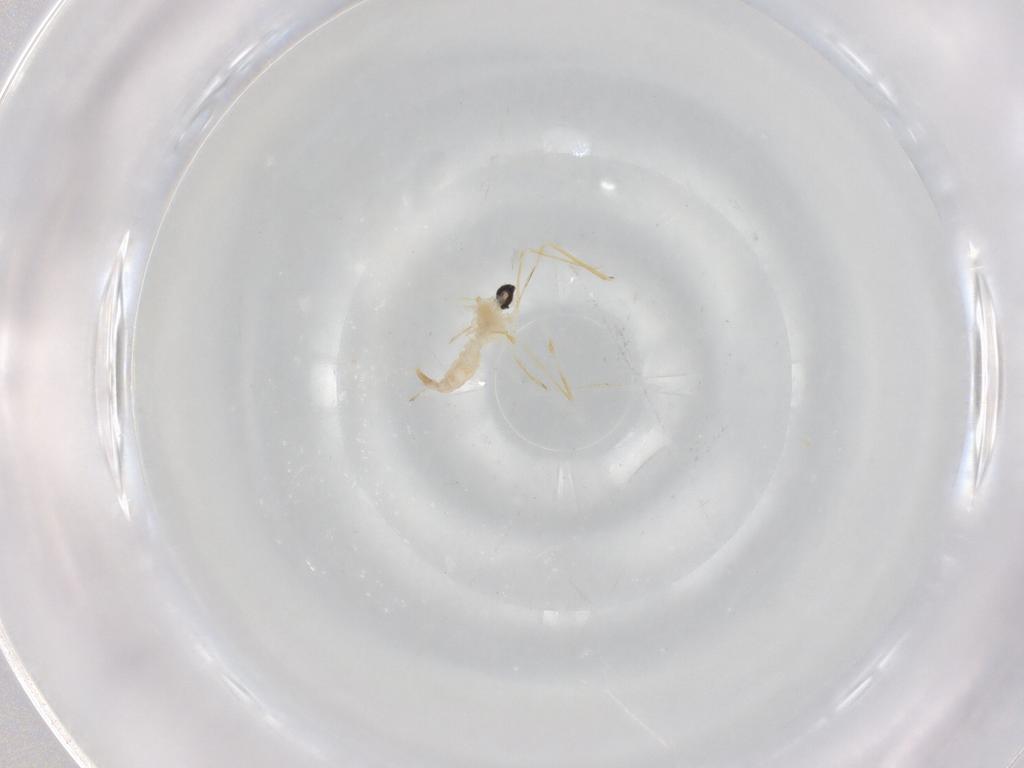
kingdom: Animalia
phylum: Arthropoda
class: Insecta
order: Diptera
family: Cecidomyiidae
